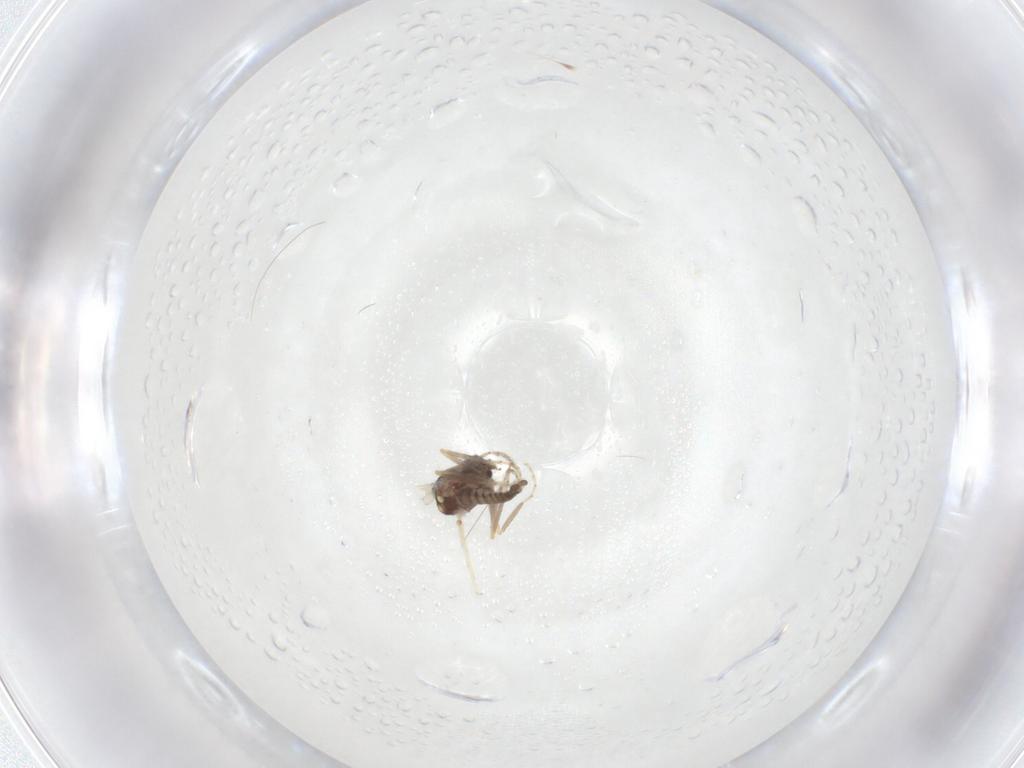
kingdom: Animalia
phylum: Arthropoda
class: Insecta
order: Diptera
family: Ceratopogonidae
